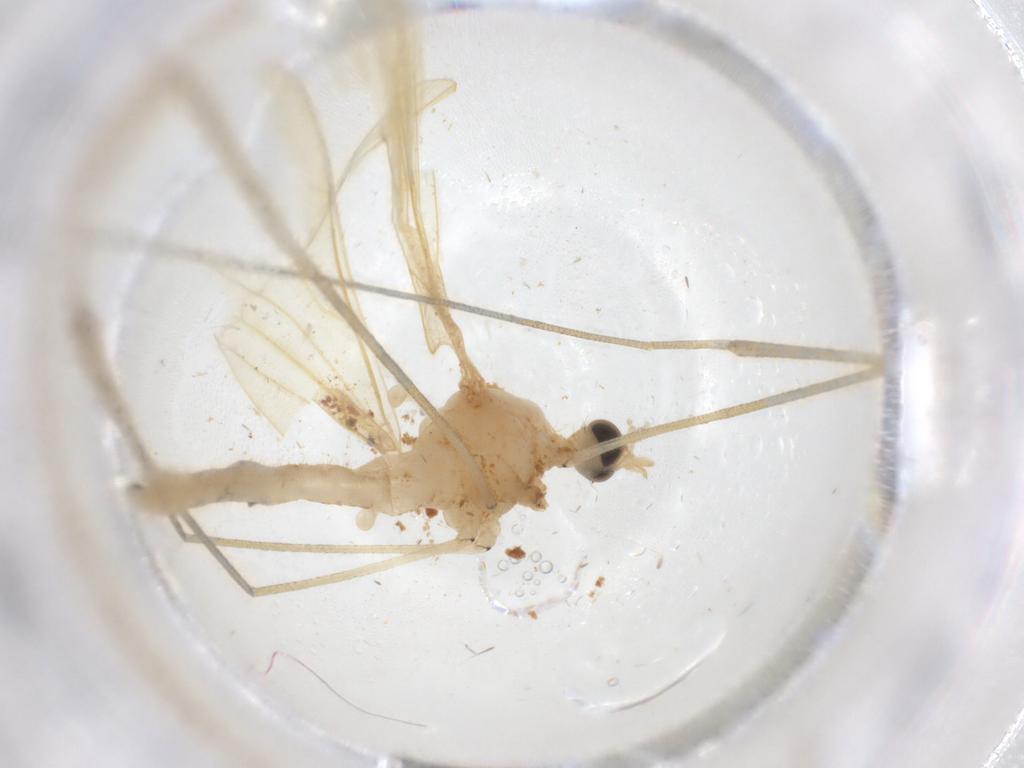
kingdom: Animalia
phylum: Arthropoda
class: Insecta
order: Diptera
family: Limoniidae
